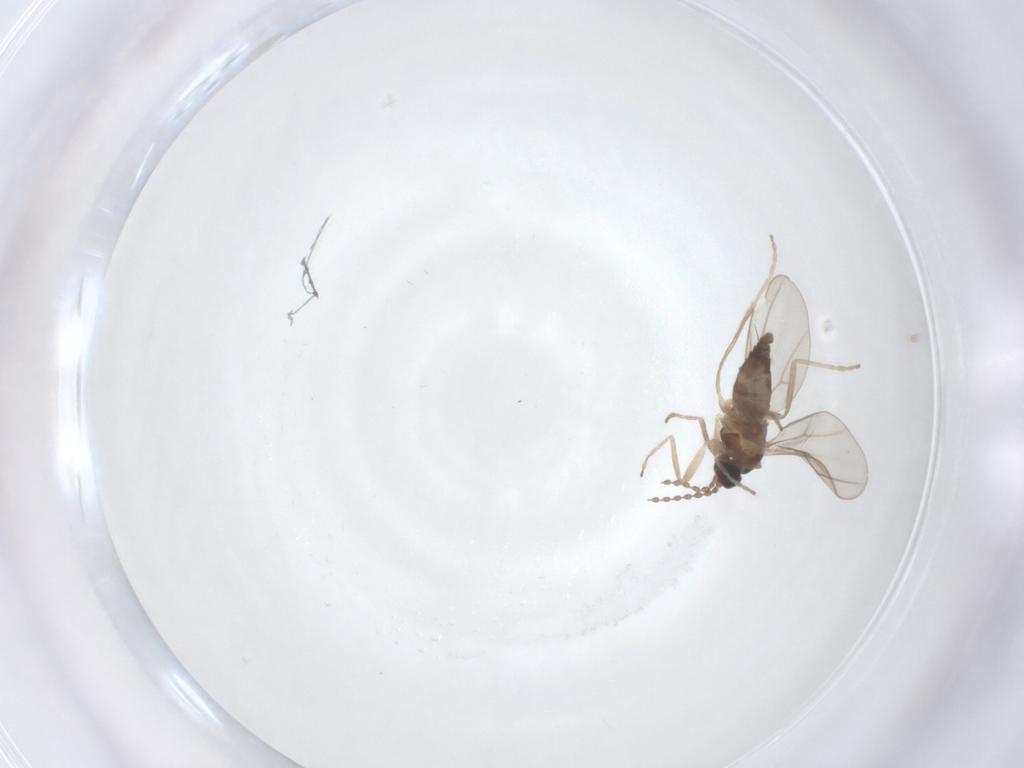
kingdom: Animalia
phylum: Arthropoda
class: Insecta
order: Diptera
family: Cecidomyiidae
